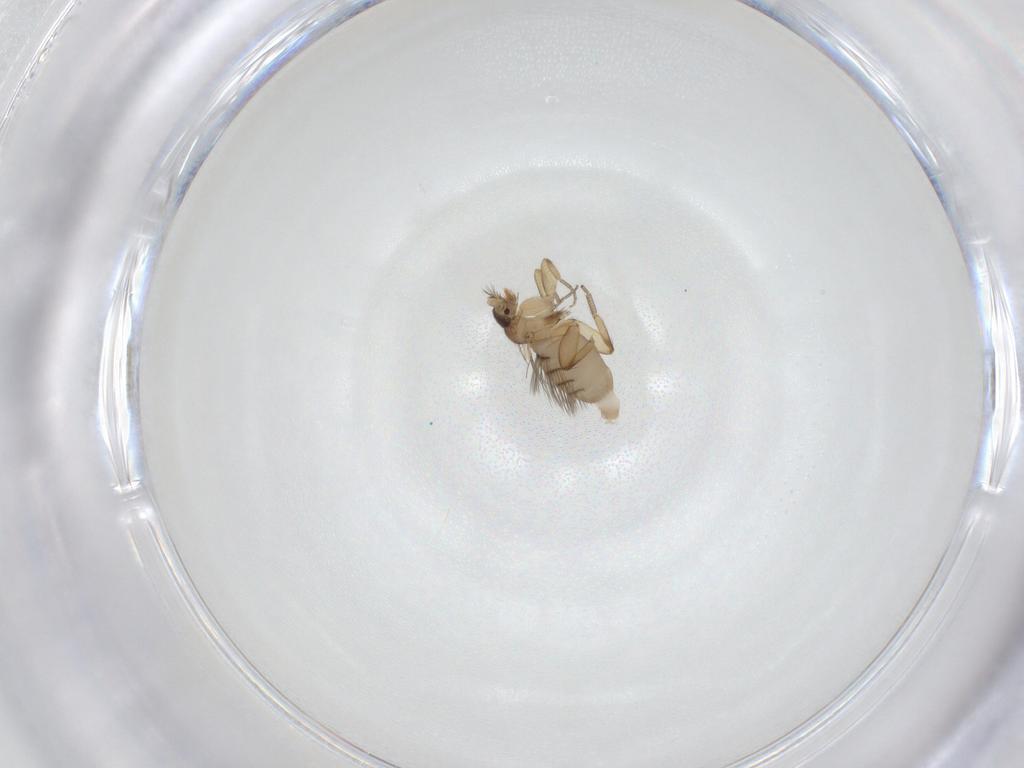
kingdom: Animalia
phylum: Arthropoda
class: Insecta
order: Diptera
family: Phoridae
